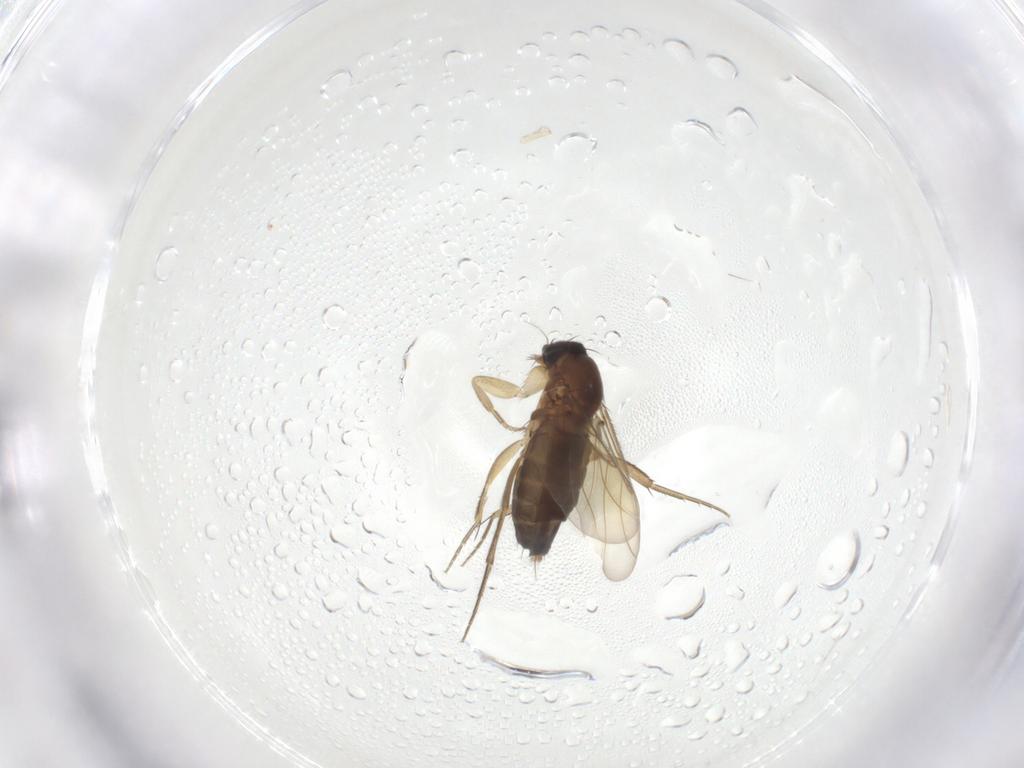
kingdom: Animalia
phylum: Arthropoda
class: Insecta
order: Diptera
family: Phoridae
